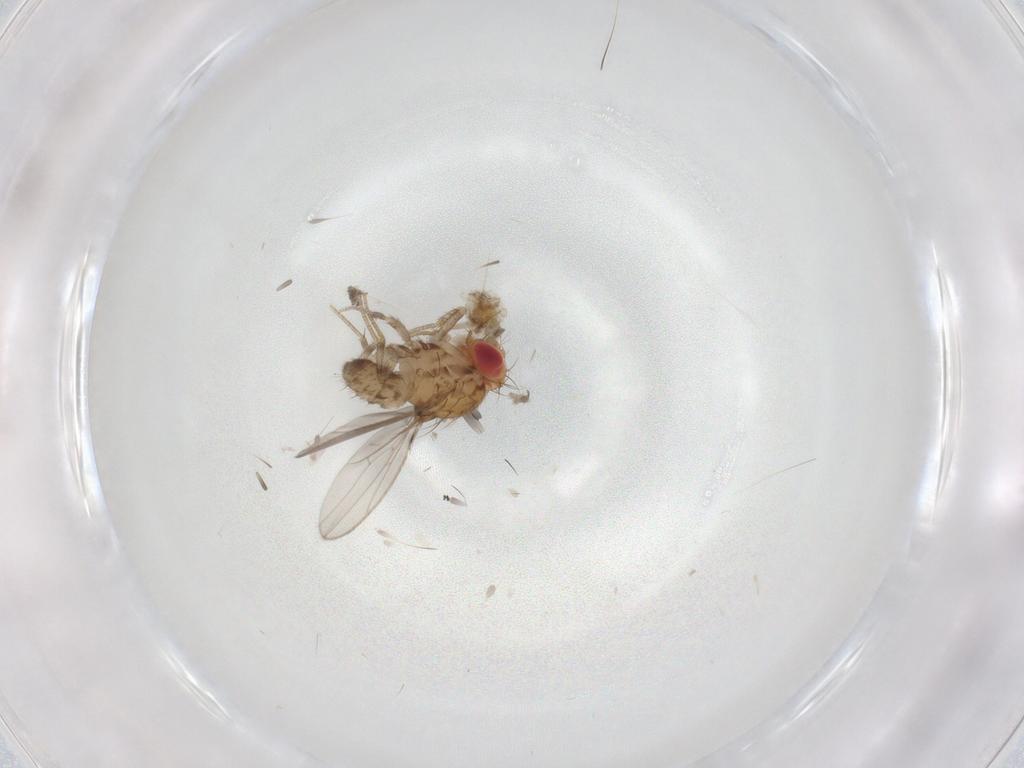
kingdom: Animalia
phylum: Arthropoda
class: Insecta
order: Diptera
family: Drosophilidae
